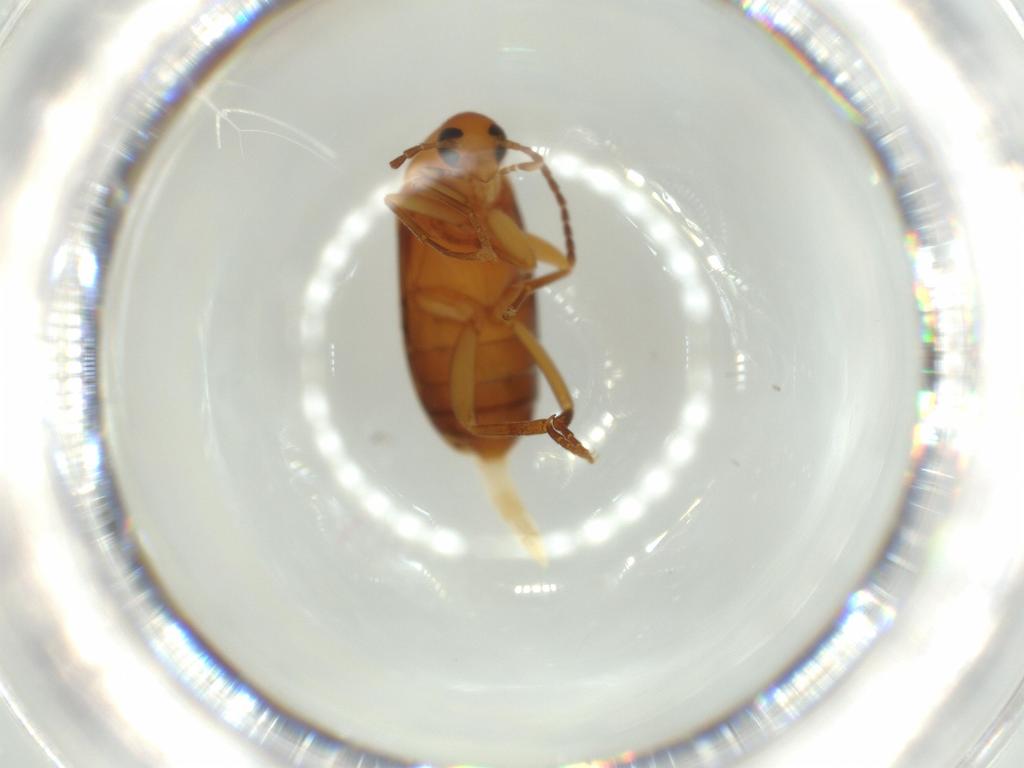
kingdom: Animalia
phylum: Arthropoda
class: Insecta
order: Coleoptera
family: Scraptiidae
